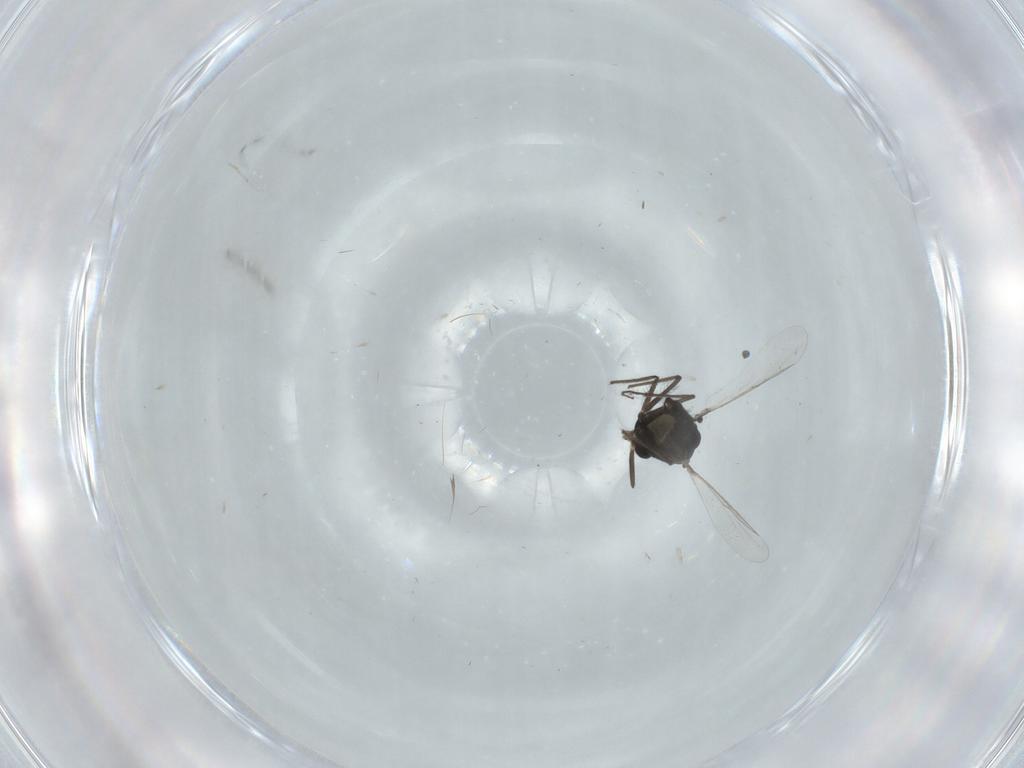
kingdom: Animalia
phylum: Arthropoda
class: Insecta
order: Diptera
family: Chironomidae
